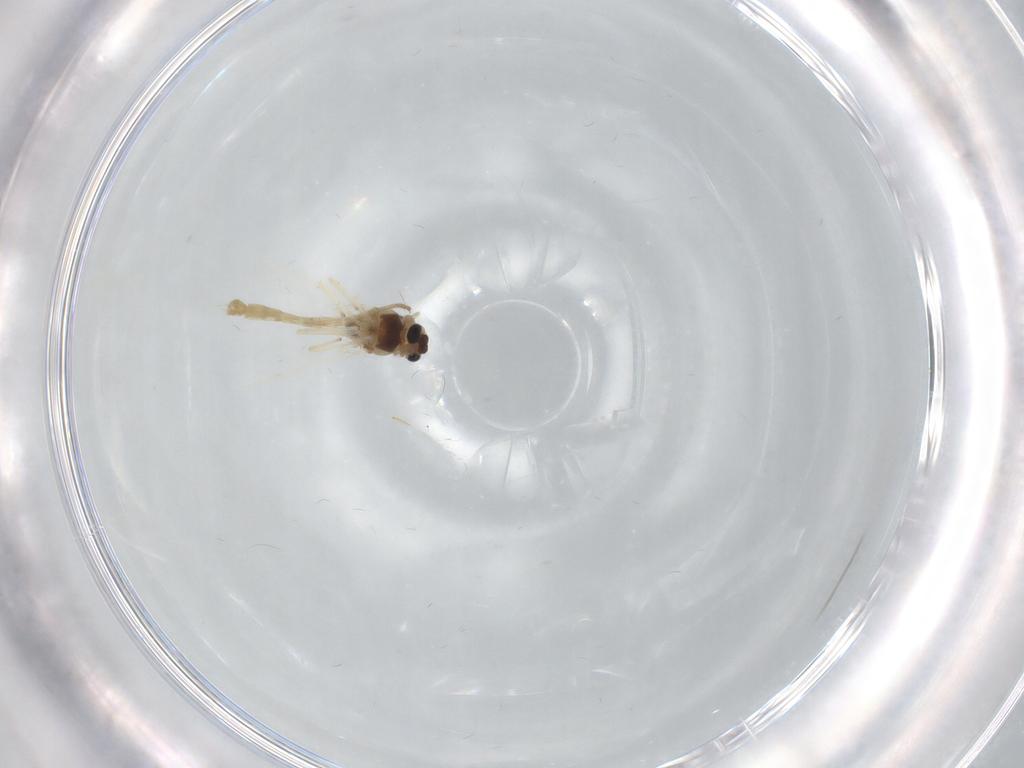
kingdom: Animalia
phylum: Arthropoda
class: Insecta
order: Diptera
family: Chironomidae
